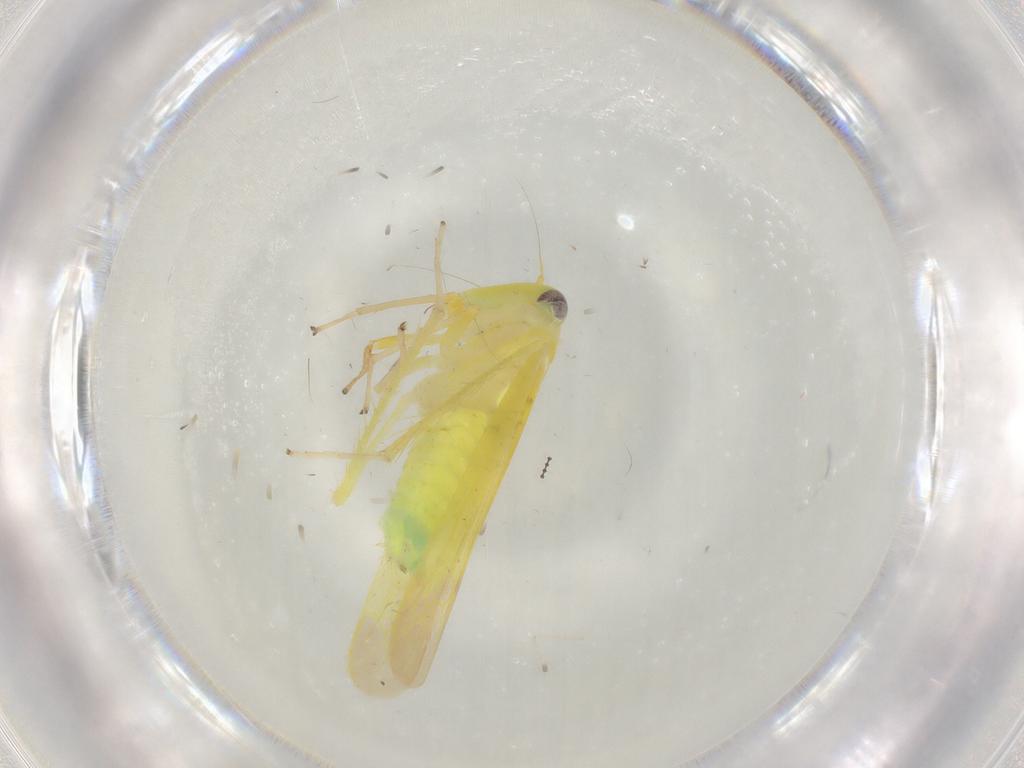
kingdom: Animalia
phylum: Arthropoda
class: Insecta
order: Hemiptera
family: Cicadellidae
